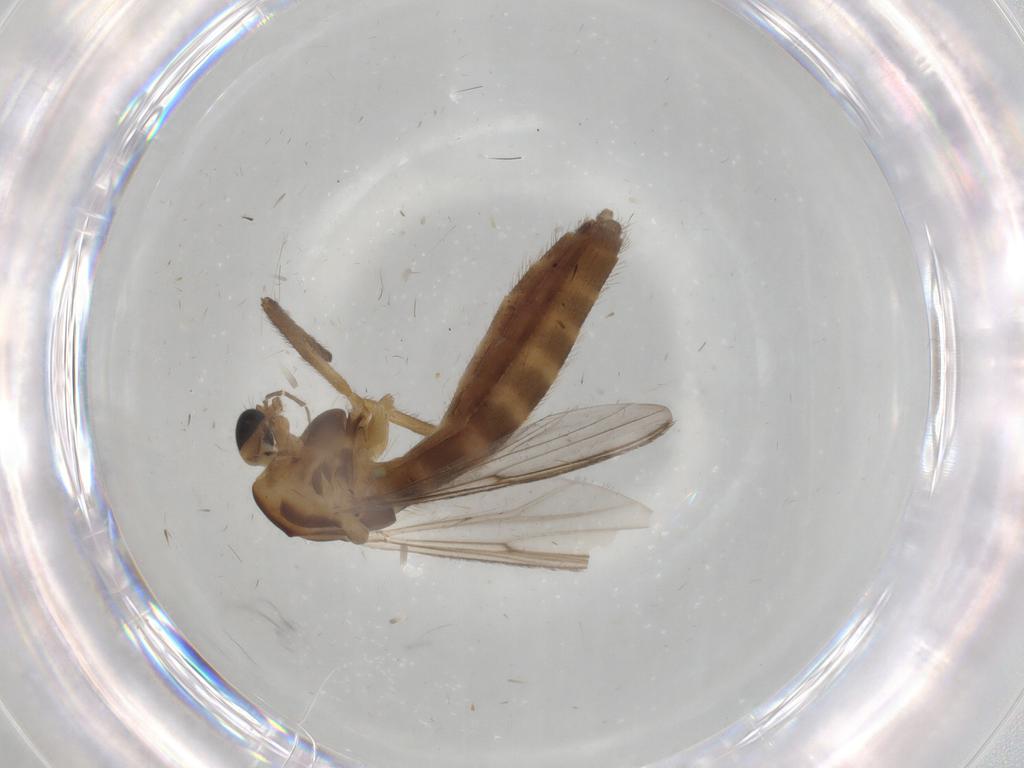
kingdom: Animalia
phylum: Arthropoda
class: Insecta
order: Diptera
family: Chironomidae
